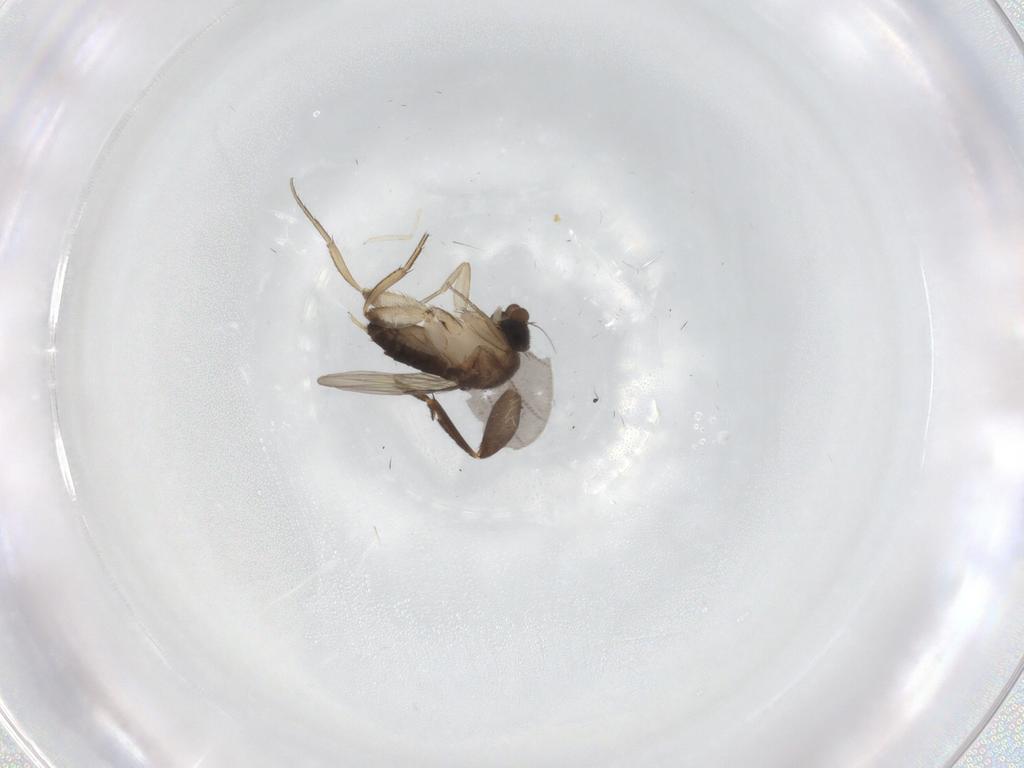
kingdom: Animalia
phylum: Arthropoda
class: Insecta
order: Diptera
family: Phoridae
